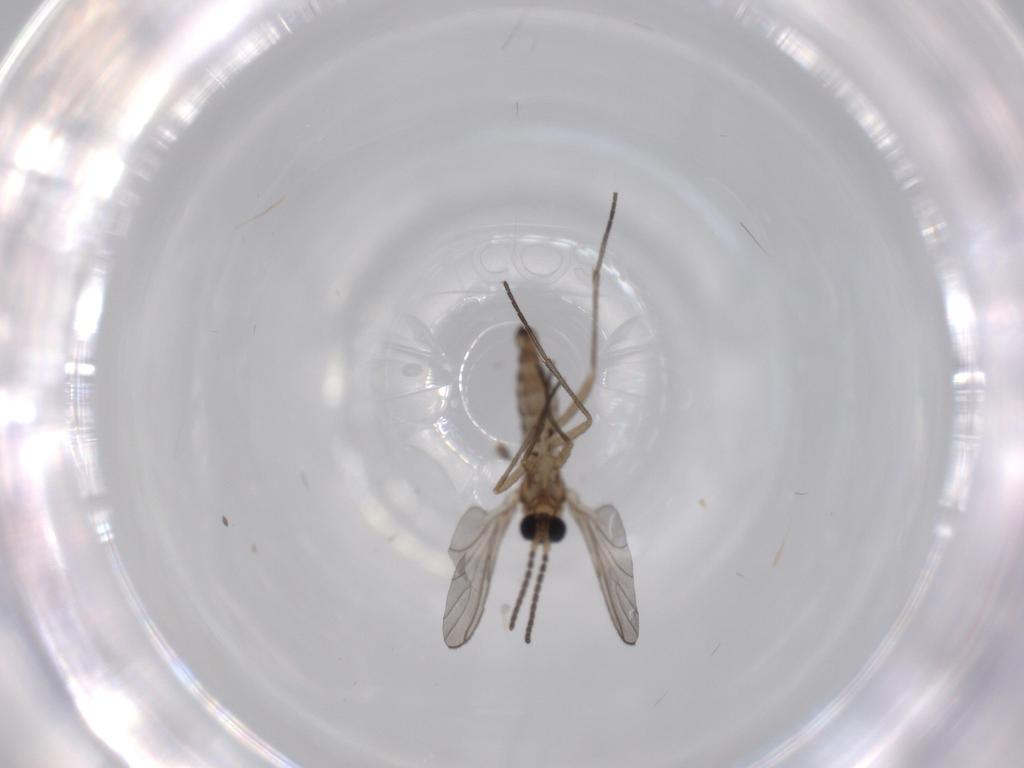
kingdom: Animalia
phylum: Arthropoda
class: Insecta
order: Diptera
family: Sciaridae
